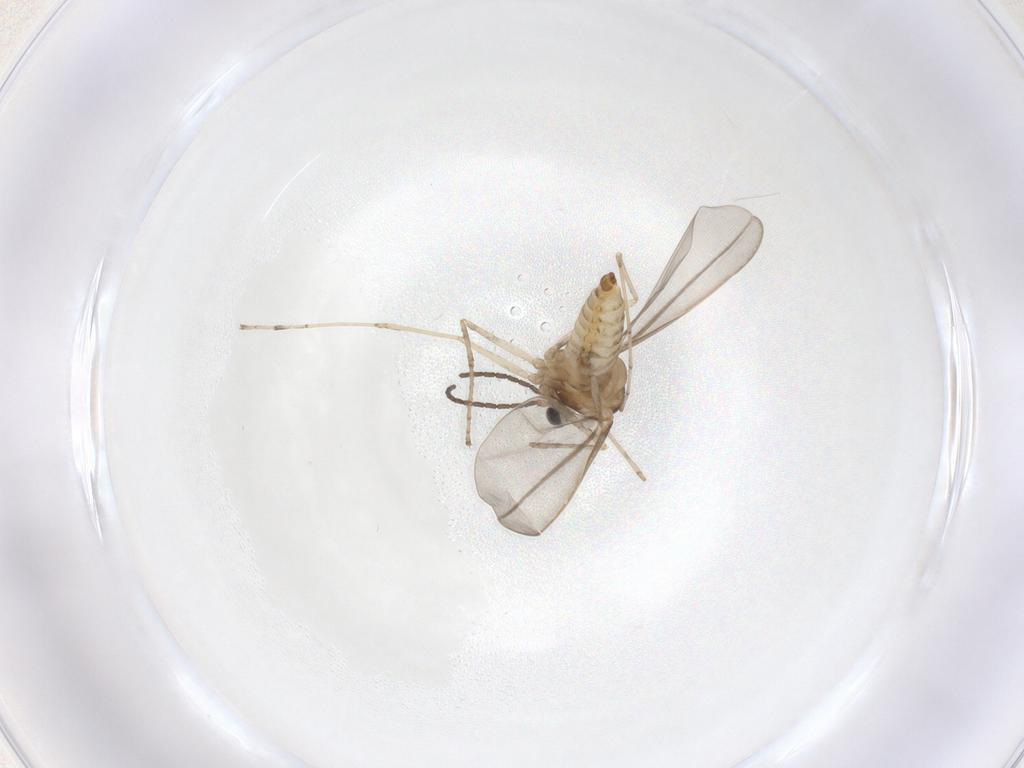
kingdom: Animalia
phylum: Arthropoda
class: Insecta
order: Diptera
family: Cecidomyiidae
